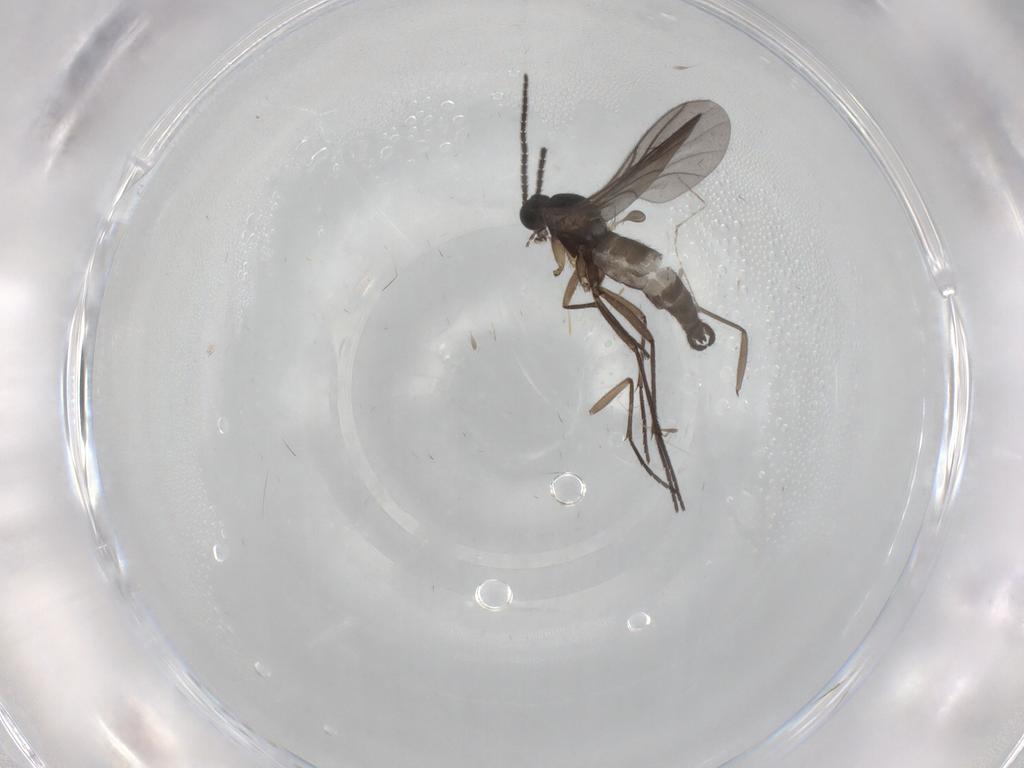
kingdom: Animalia
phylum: Arthropoda
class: Insecta
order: Diptera
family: Sciaridae
